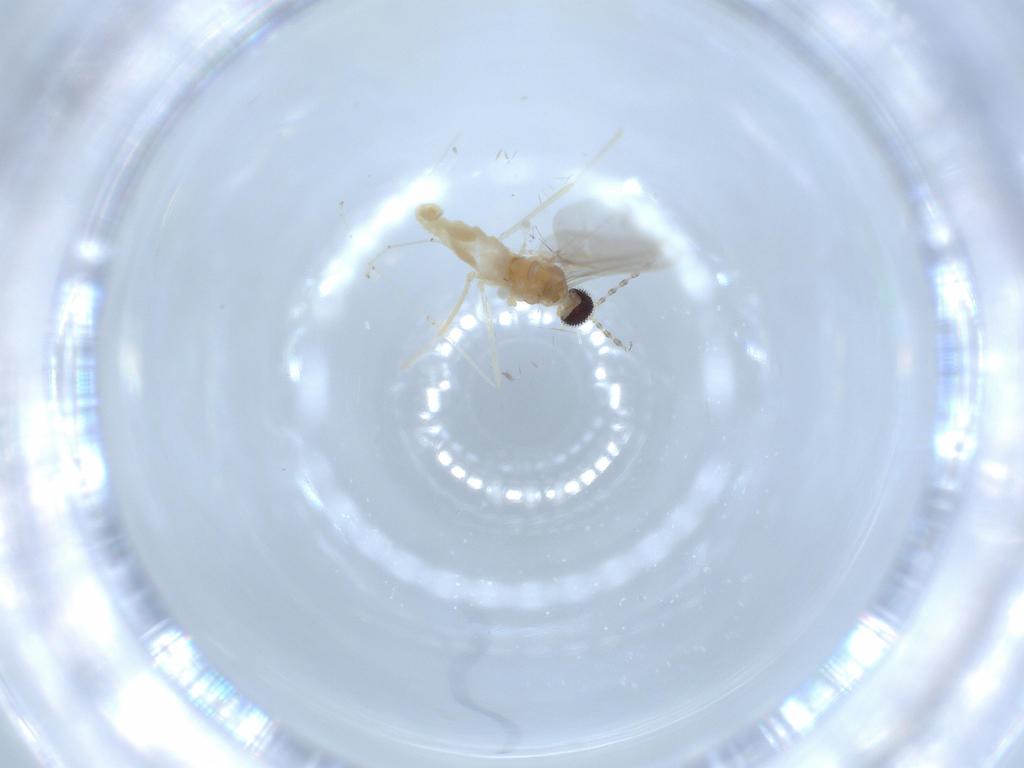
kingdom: Animalia
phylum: Arthropoda
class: Insecta
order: Diptera
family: Cecidomyiidae
